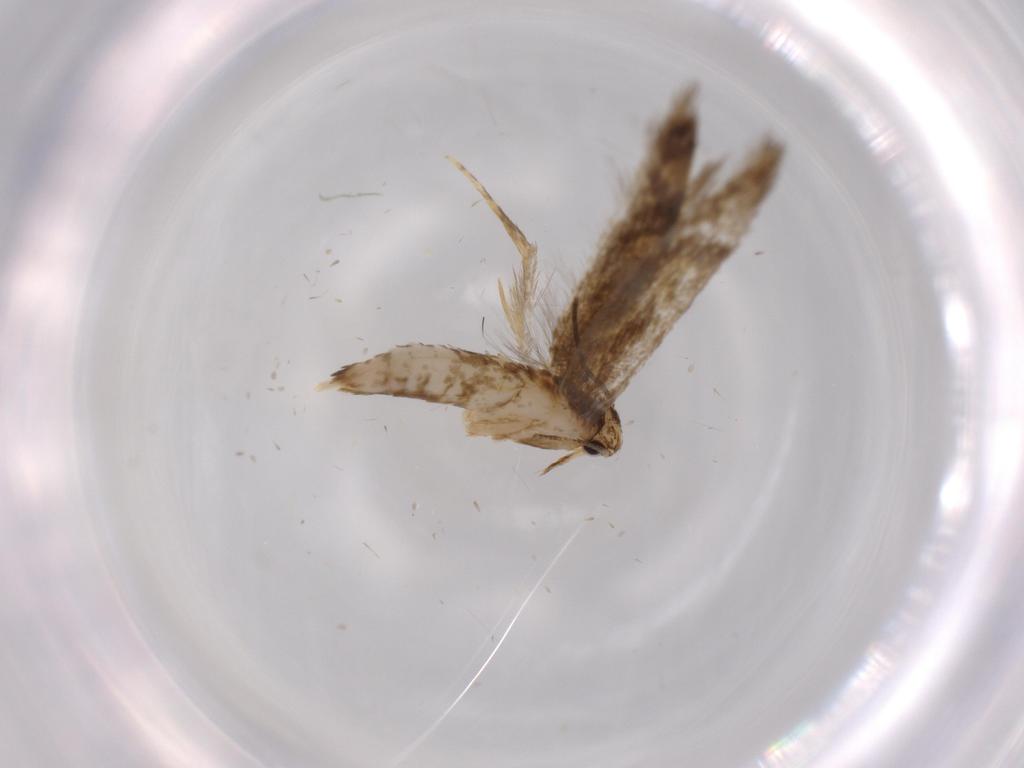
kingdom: Animalia
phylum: Arthropoda
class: Insecta
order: Lepidoptera
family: Tineidae
